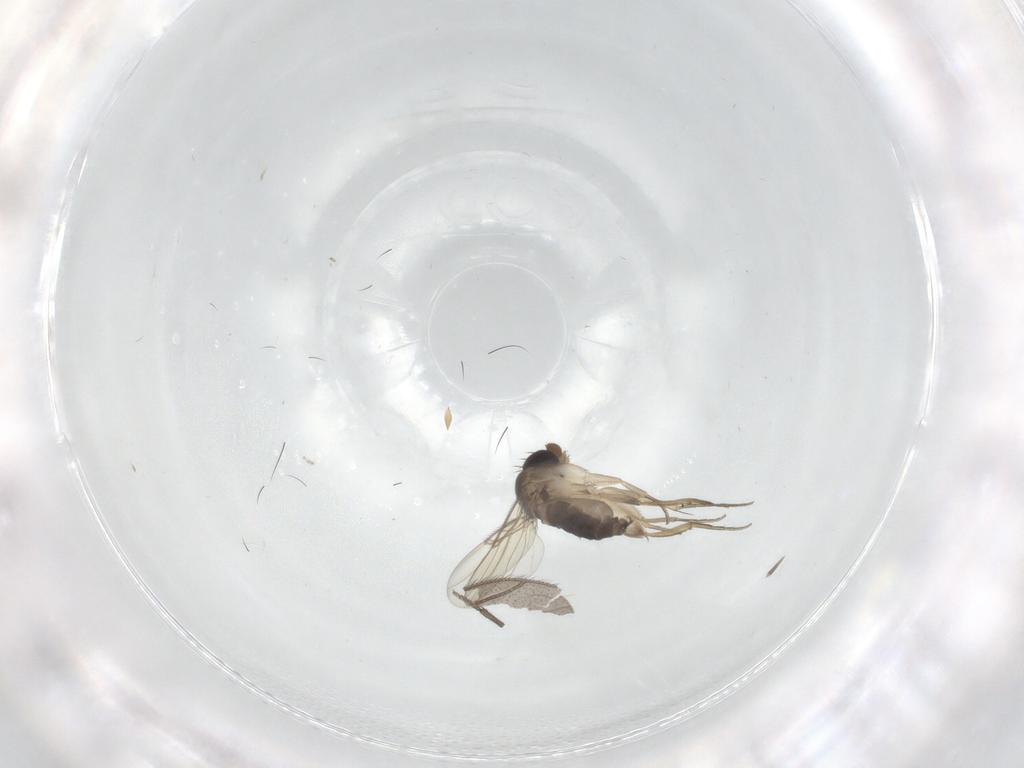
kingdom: Animalia
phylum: Arthropoda
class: Insecta
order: Diptera
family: Phoridae
